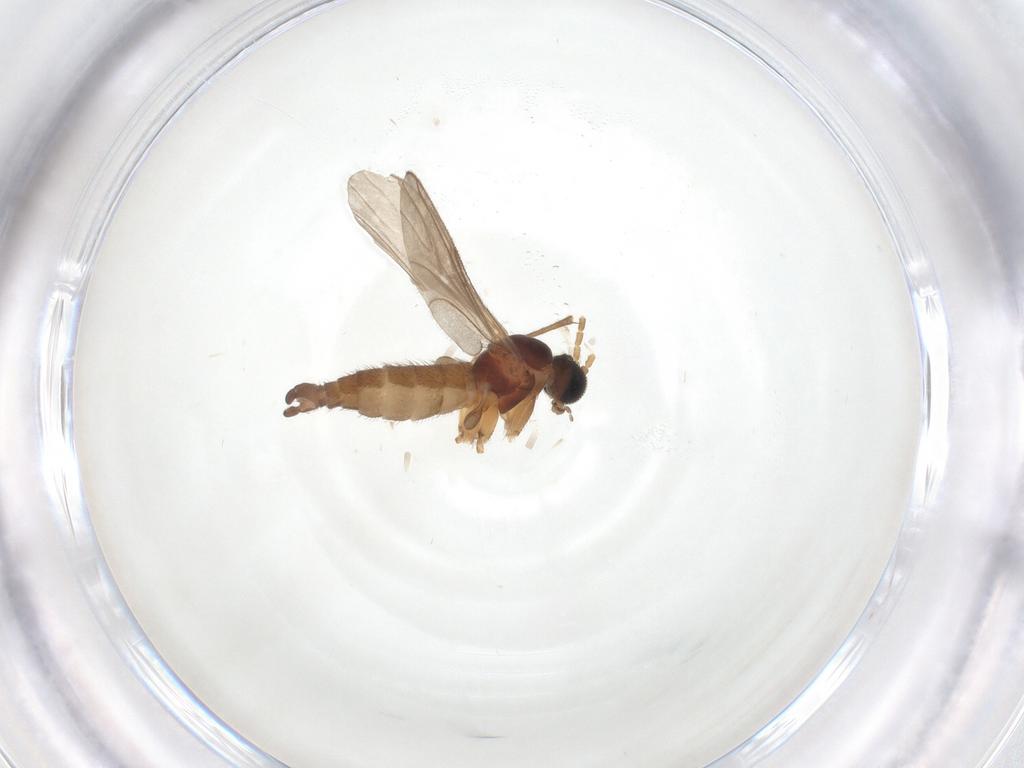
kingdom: Animalia
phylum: Arthropoda
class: Insecta
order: Diptera
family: Sciaridae
